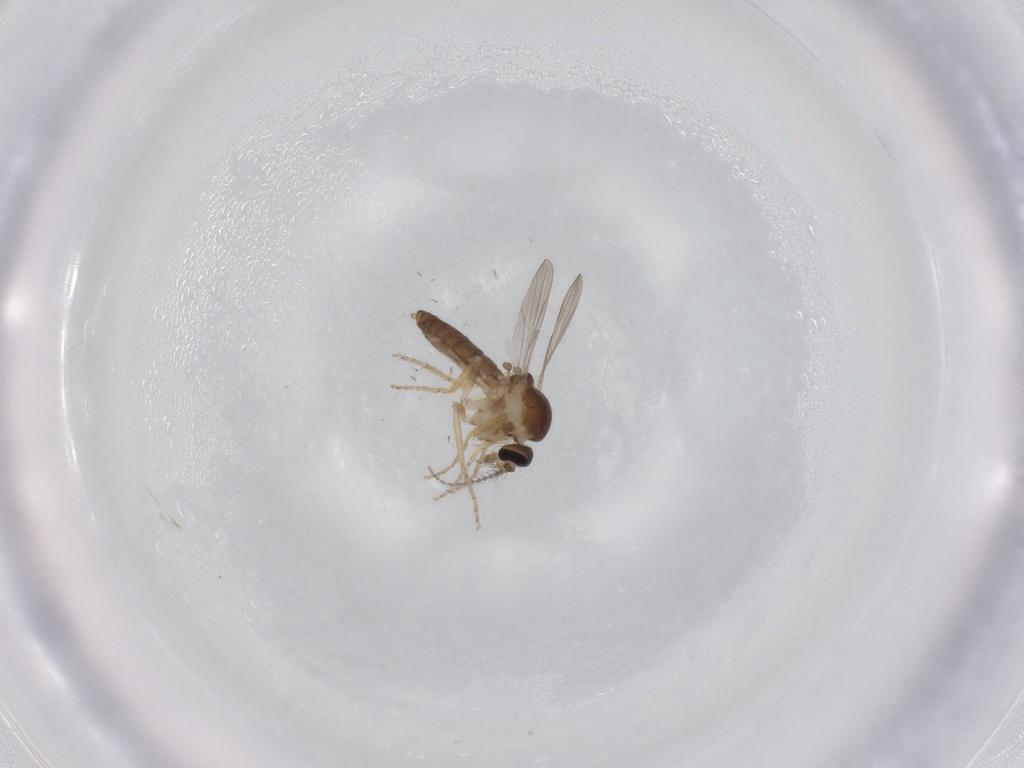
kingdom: Animalia
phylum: Arthropoda
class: Insecta
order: Diptera
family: Ceratopogonidae
